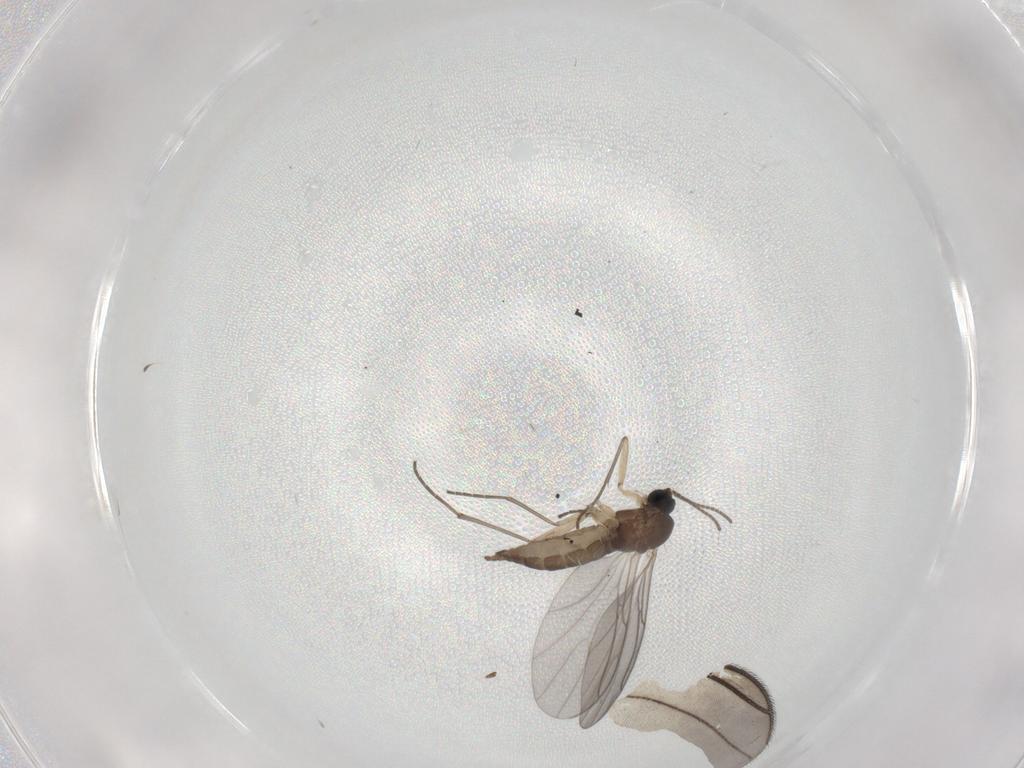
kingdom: Animalia
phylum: Arthropoda
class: Insecta
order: Diptera
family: Sciaridae
